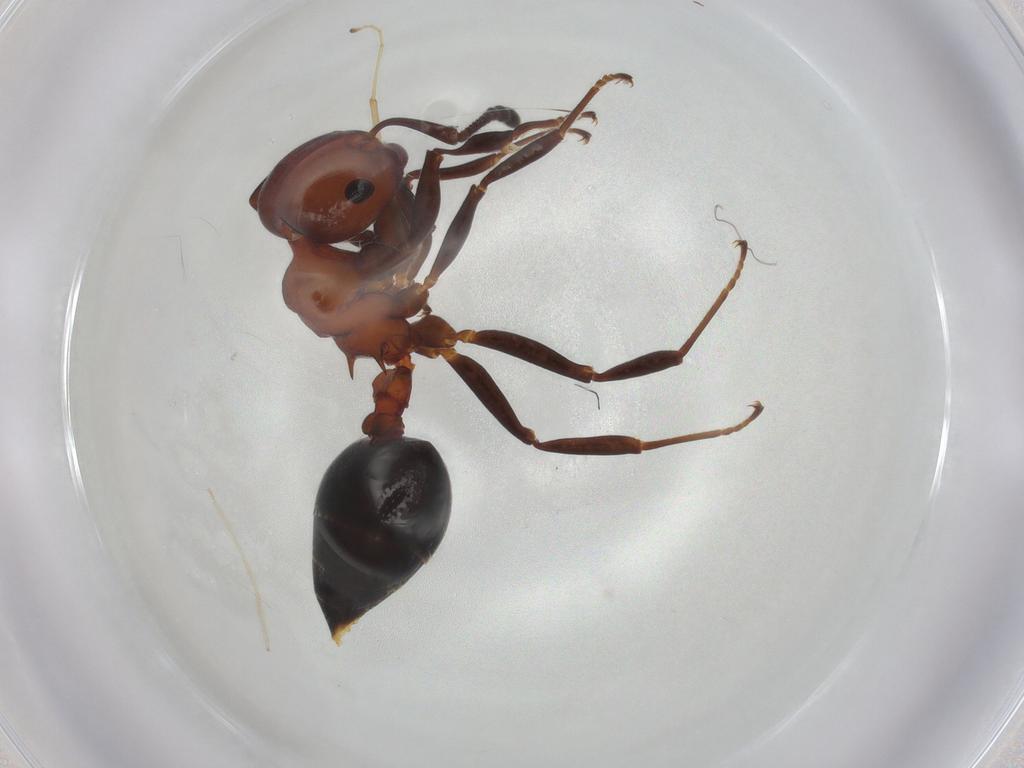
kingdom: Animalia
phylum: Arthropoda
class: Insecta
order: Hymenoptera
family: Formicidae
